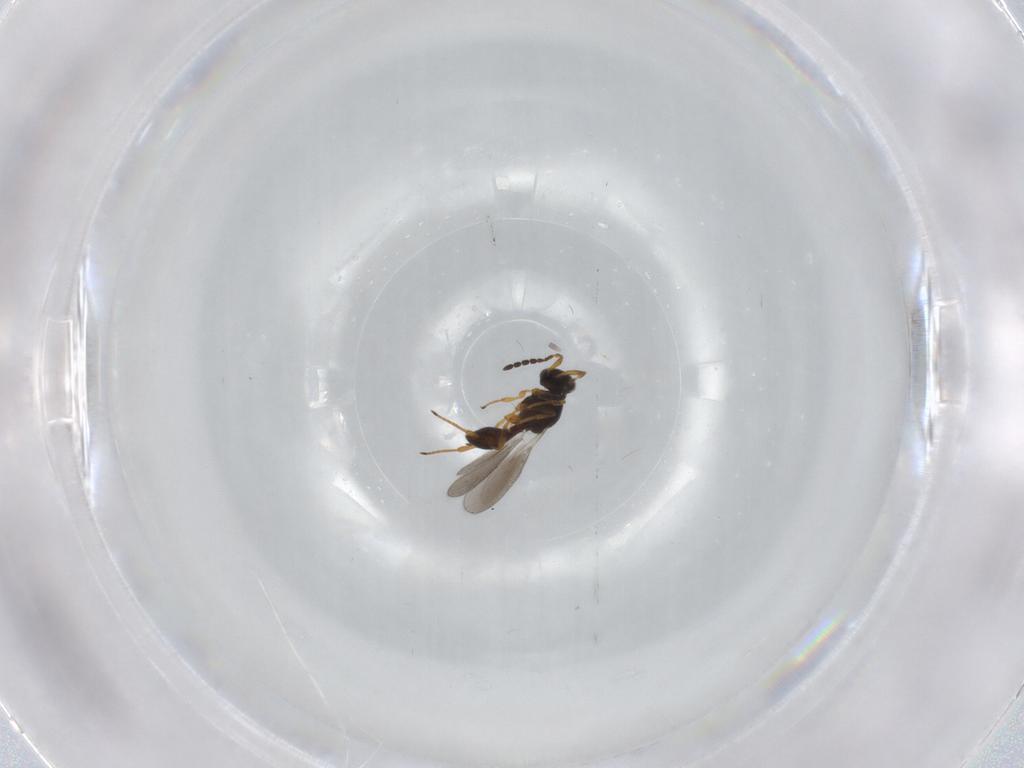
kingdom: Animalia
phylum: Arthropoda
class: Insecta
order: Hymenoptera
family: Platygastridae
